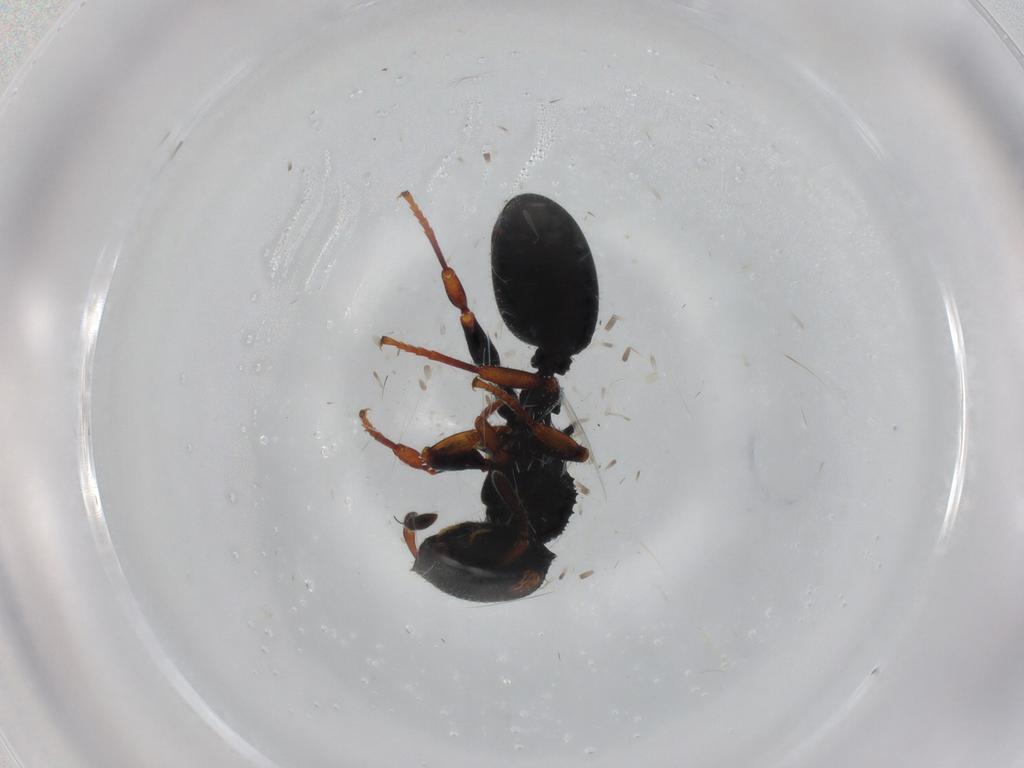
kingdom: Animalia
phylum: Arthropoda
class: Insecta
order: Hymenoptera
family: Formicidae
